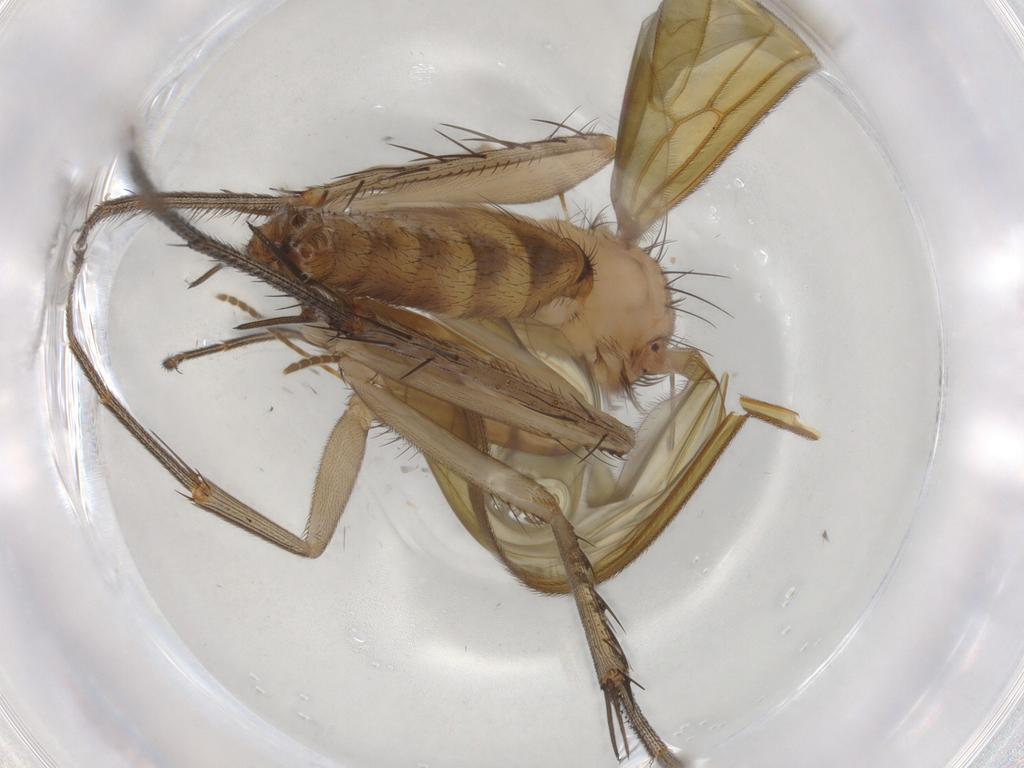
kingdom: Animalia
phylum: Arthropoda
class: Insecta
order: Diptera
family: Mycetophilidae
